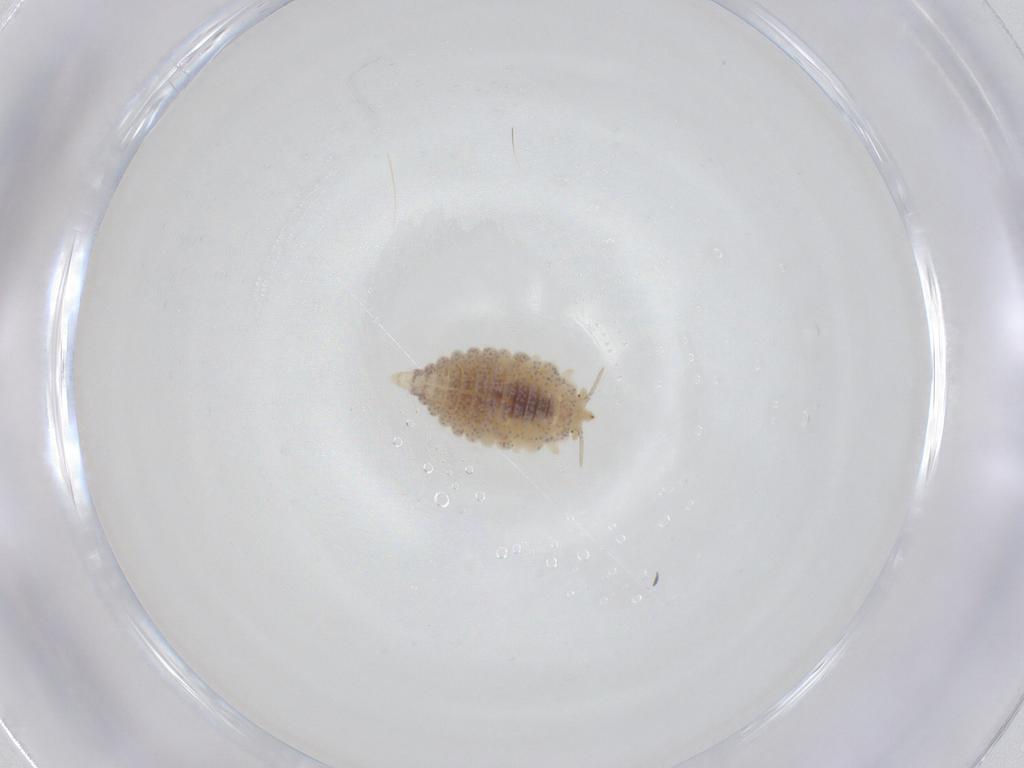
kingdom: Animalia
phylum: Arthropoda
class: Insecta
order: Neuroptera
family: Coniopterygidae
